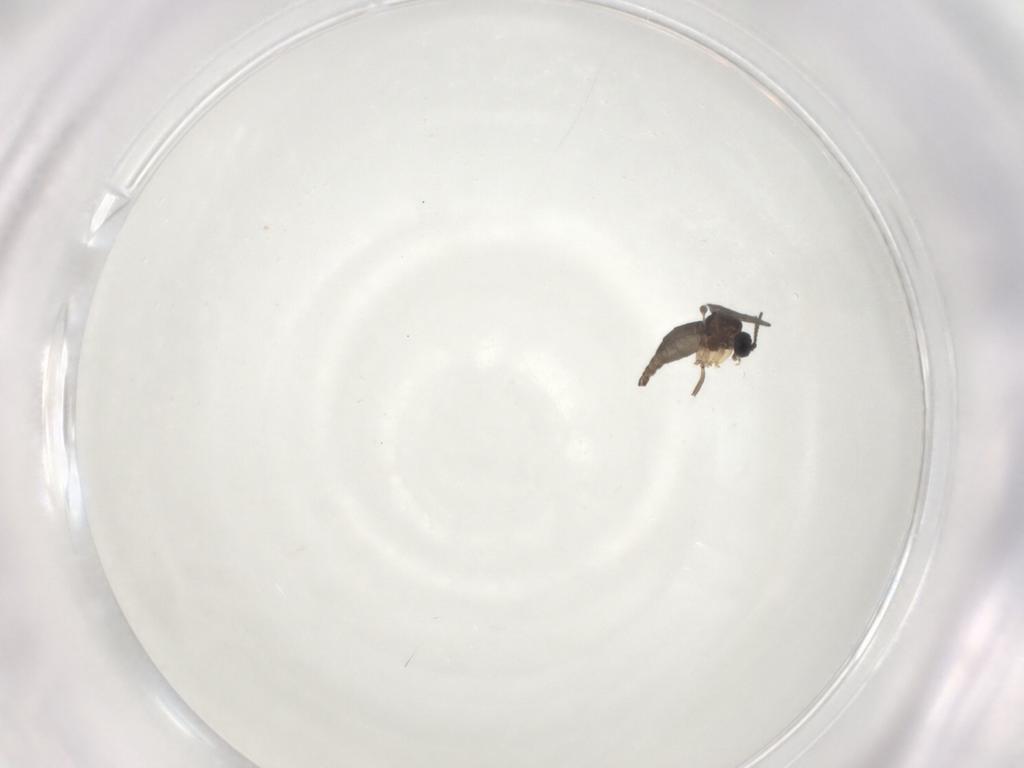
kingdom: Animalia
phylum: Arthropoda
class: Insecta
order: Diptera
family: Sciaridae
